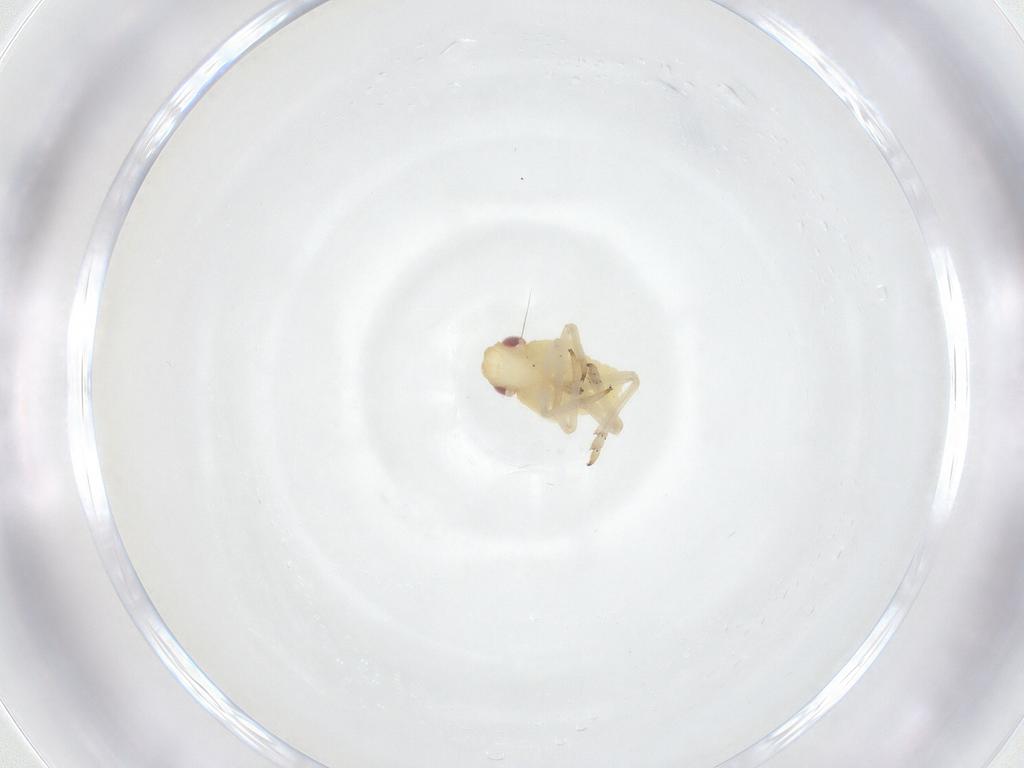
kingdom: Animalia
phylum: Arthropoda
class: Insecta
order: Hemiptera
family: Caliscelidae
